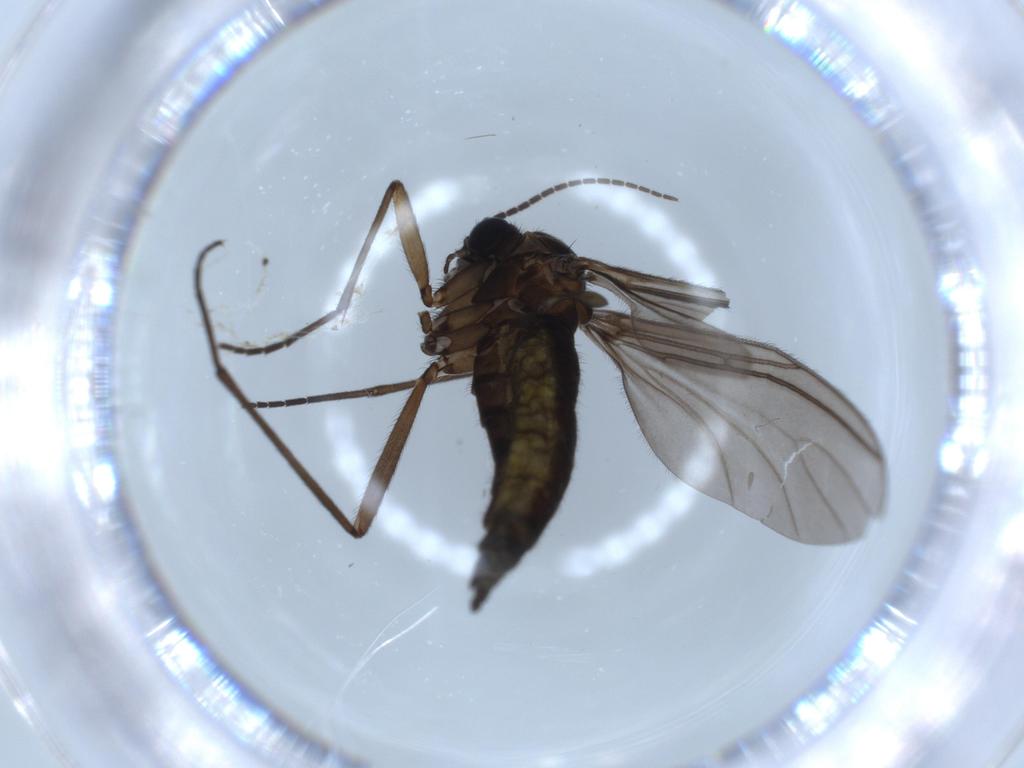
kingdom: Animalia
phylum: Arthropoda
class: Insecta
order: Diptera
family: Sciaridae
